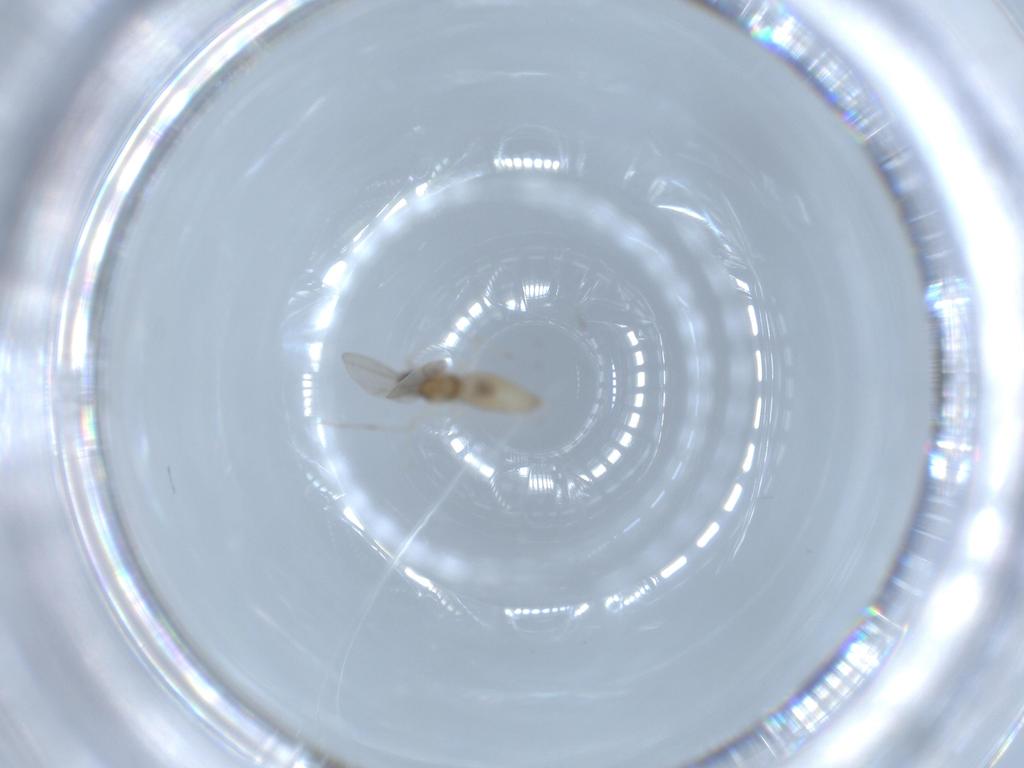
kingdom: Animalia
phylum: Arthropoda
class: Insecta
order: Diptera
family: Cecidomyiidae
